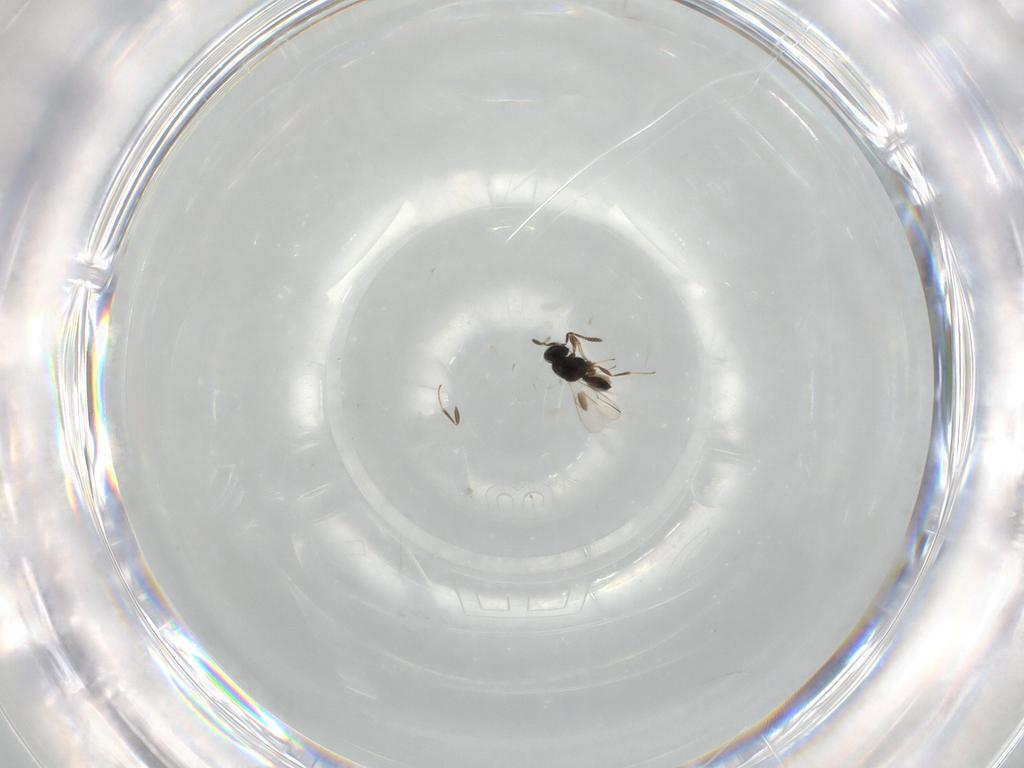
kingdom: Animalia
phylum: Arthropoda
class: Insecta
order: Hymenoptera
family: Scelionidae
